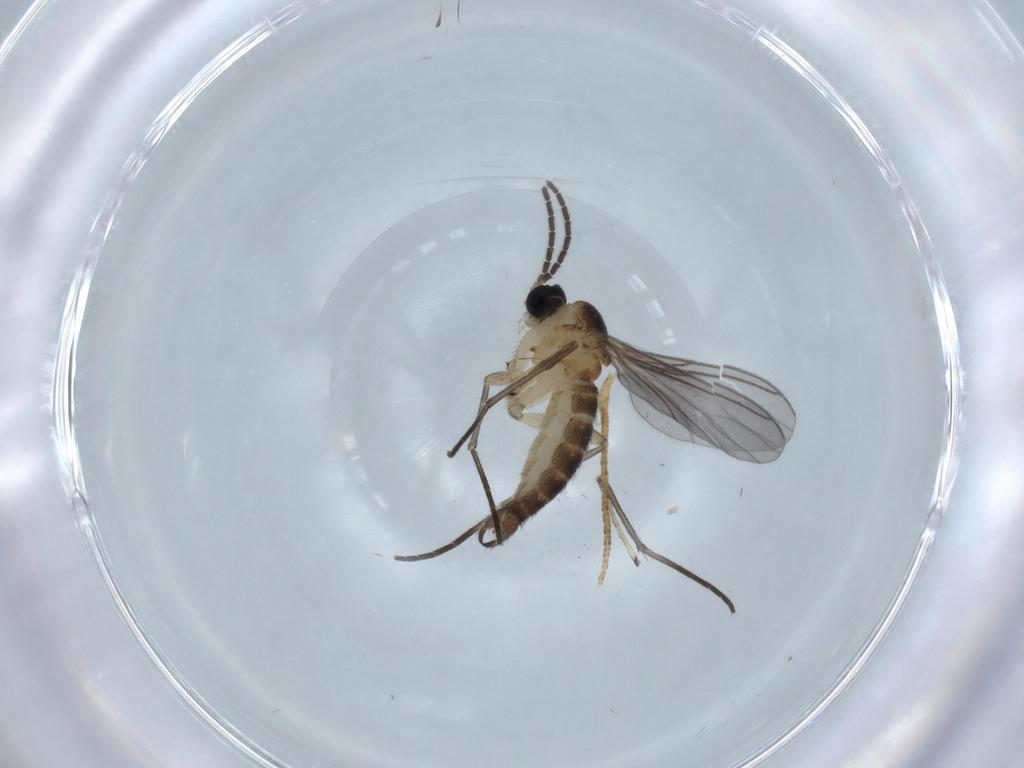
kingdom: Animalia
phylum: Arthropoda
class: Insecta
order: Diptera
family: Sciaridae
